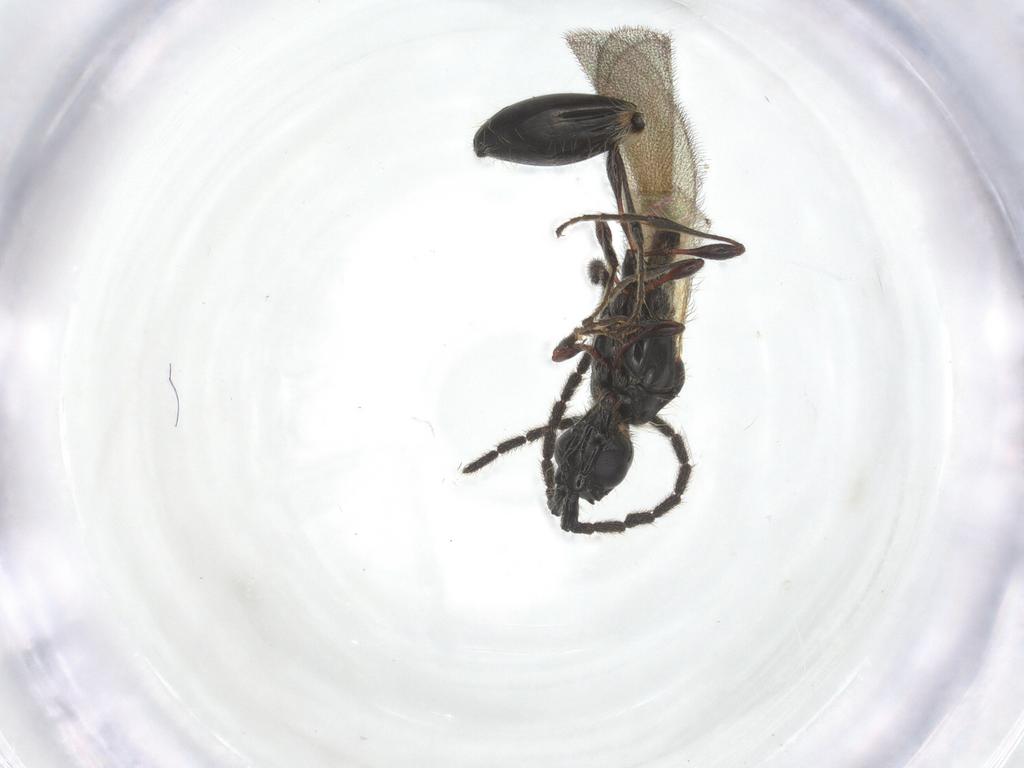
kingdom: Animalia
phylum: Arthropoda
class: Insecta
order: Hymenoptera
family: Diapriidae
